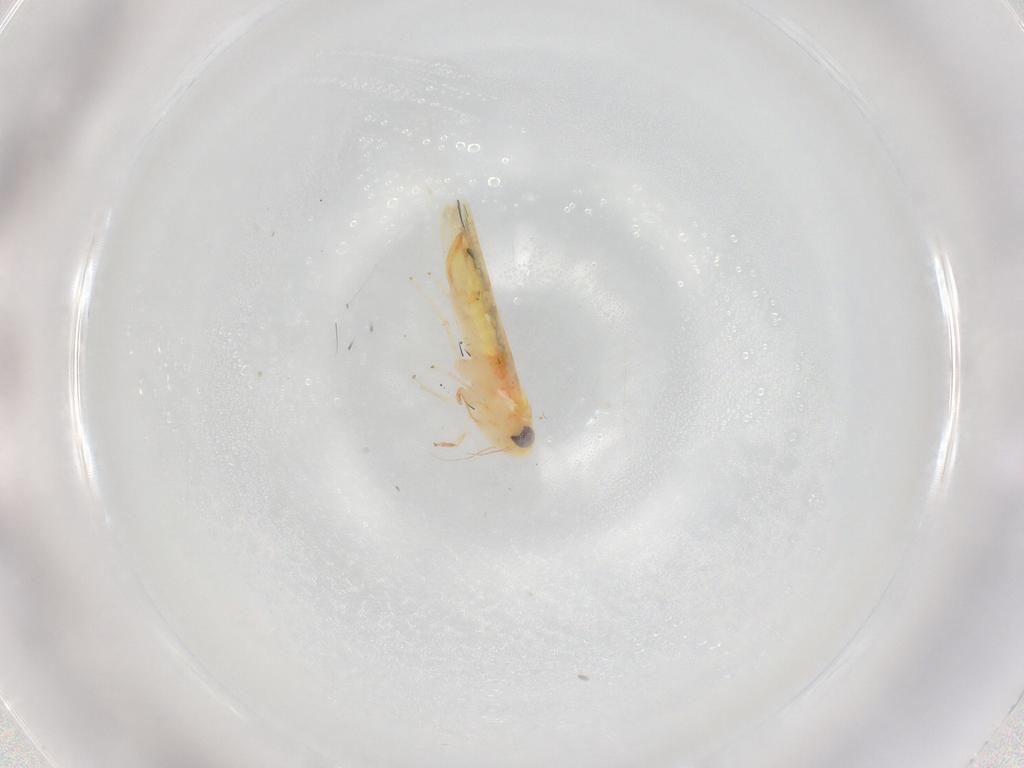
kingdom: Animalia
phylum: Arthropoda
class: Insecta
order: Hemiptera
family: Cicadellidae
